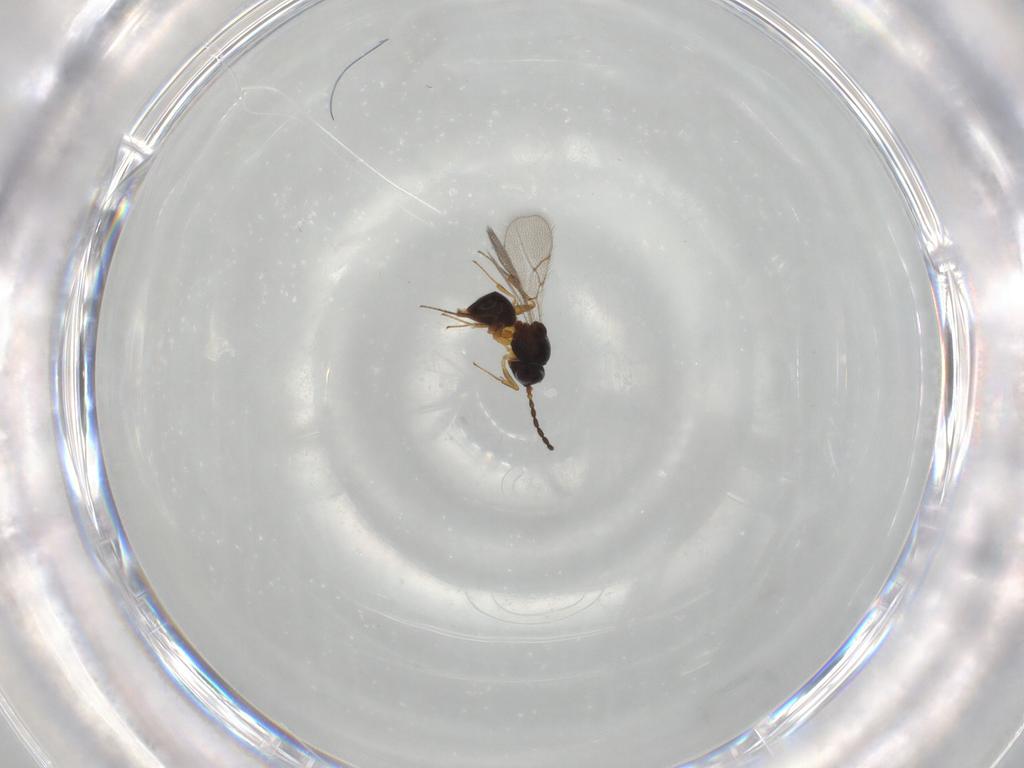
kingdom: Animalia
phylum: Arthropoda
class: Insecta
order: Hymenoptera
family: Figitidae
